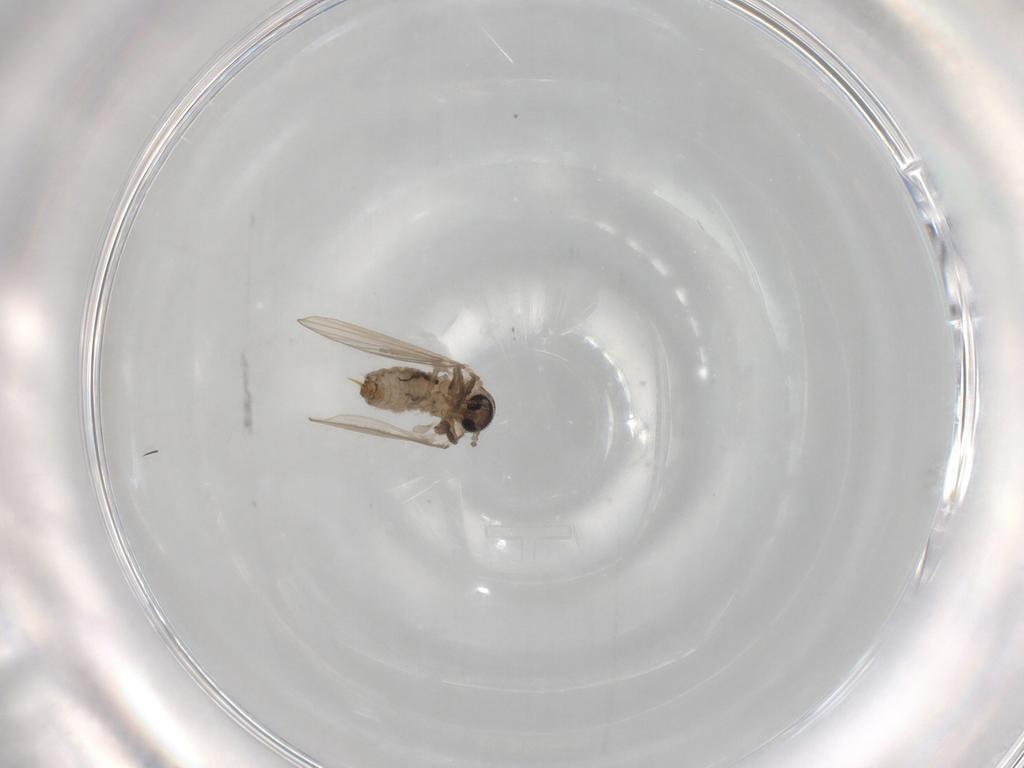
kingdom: Animalia
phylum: Arthropoda
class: Insecta
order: Diptera
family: Ceratopogonidae
